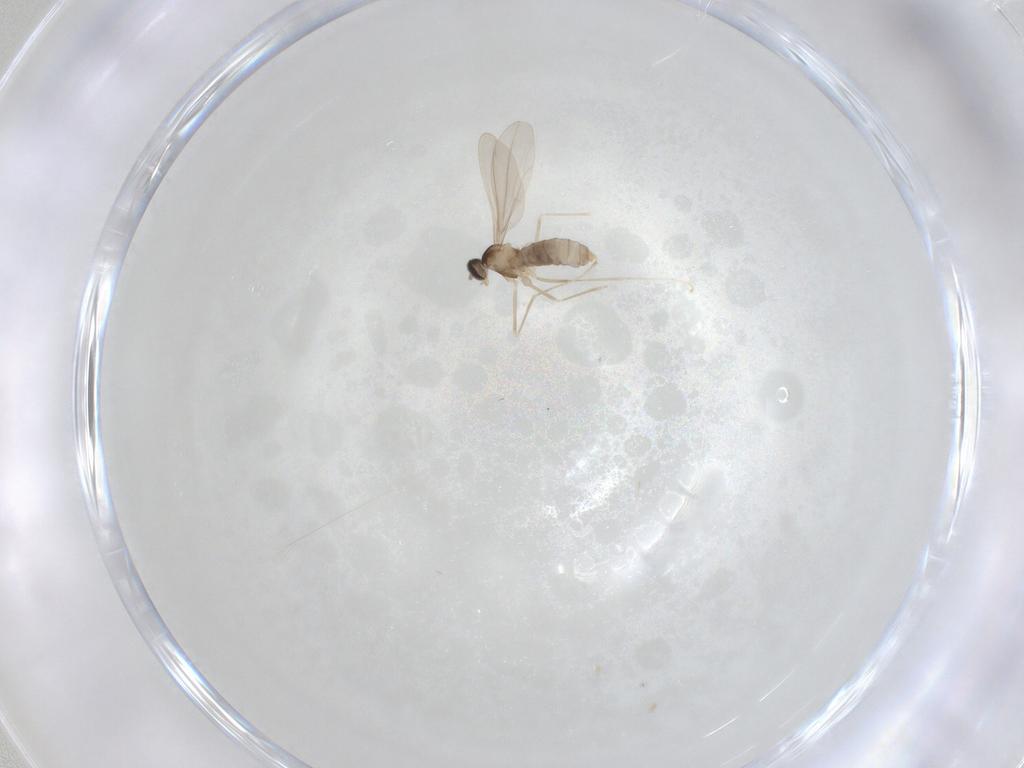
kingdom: Animalia
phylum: Arthropoda
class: Insecta
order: Diptera
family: Cecidomyiidae
